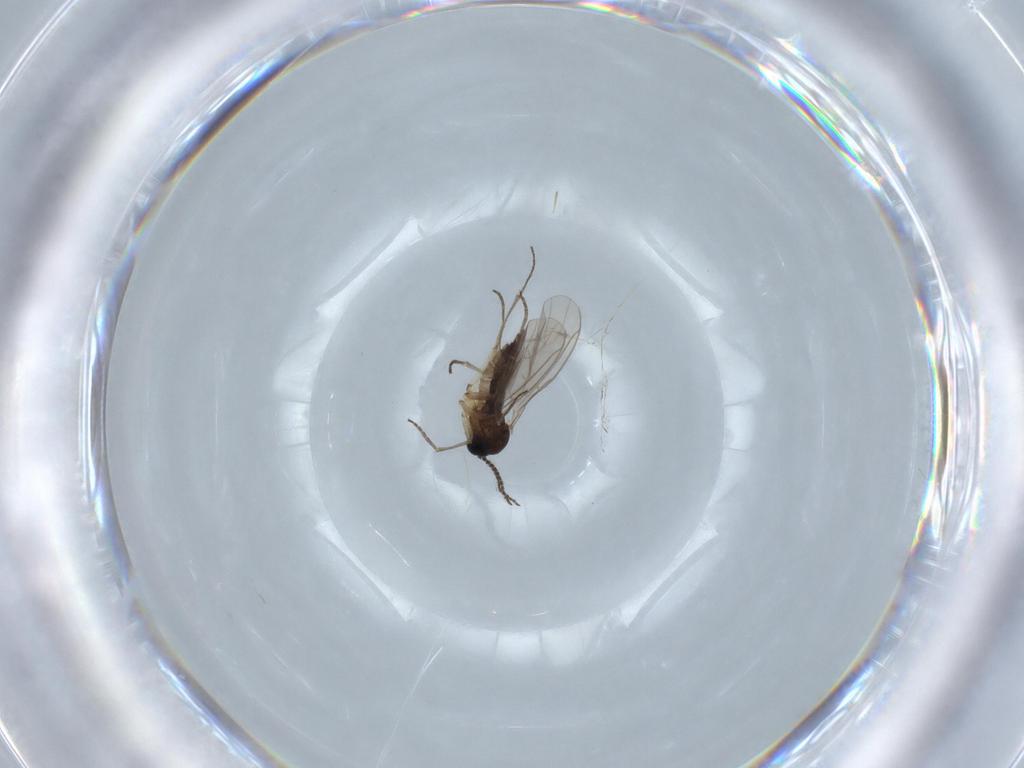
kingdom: Animalia
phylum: Arthropoda
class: Insecta
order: Diptera
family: Sciaridae
